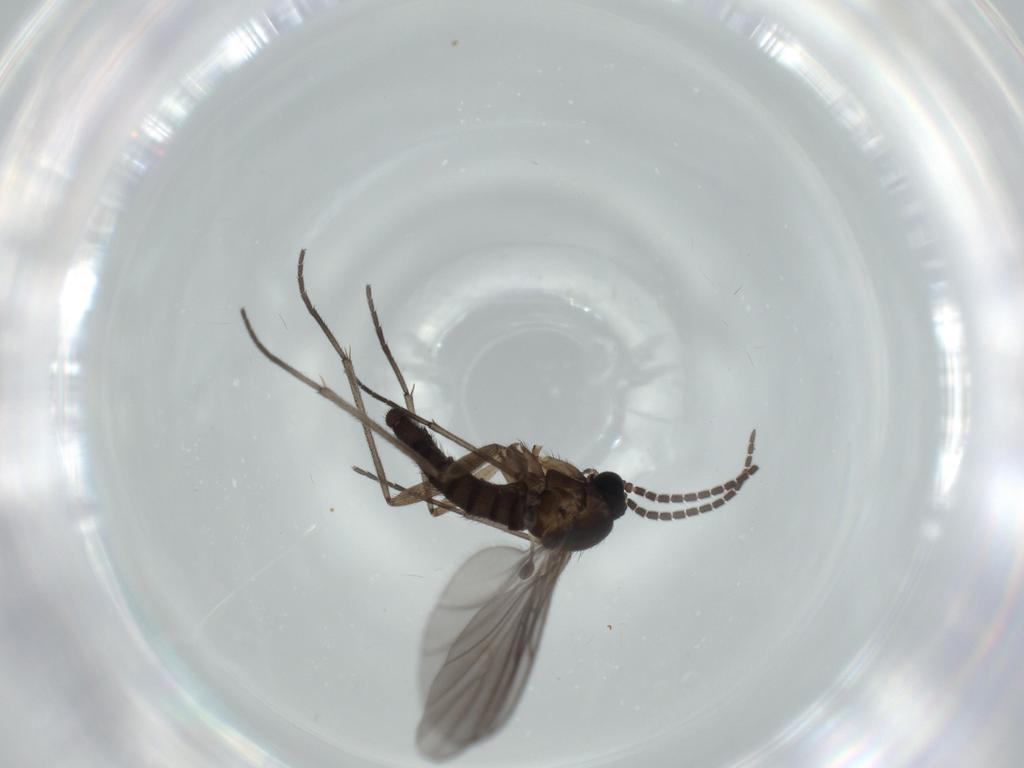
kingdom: Animalia
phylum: Arthropoda
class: Insecta
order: Diptera
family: Sciaridae
